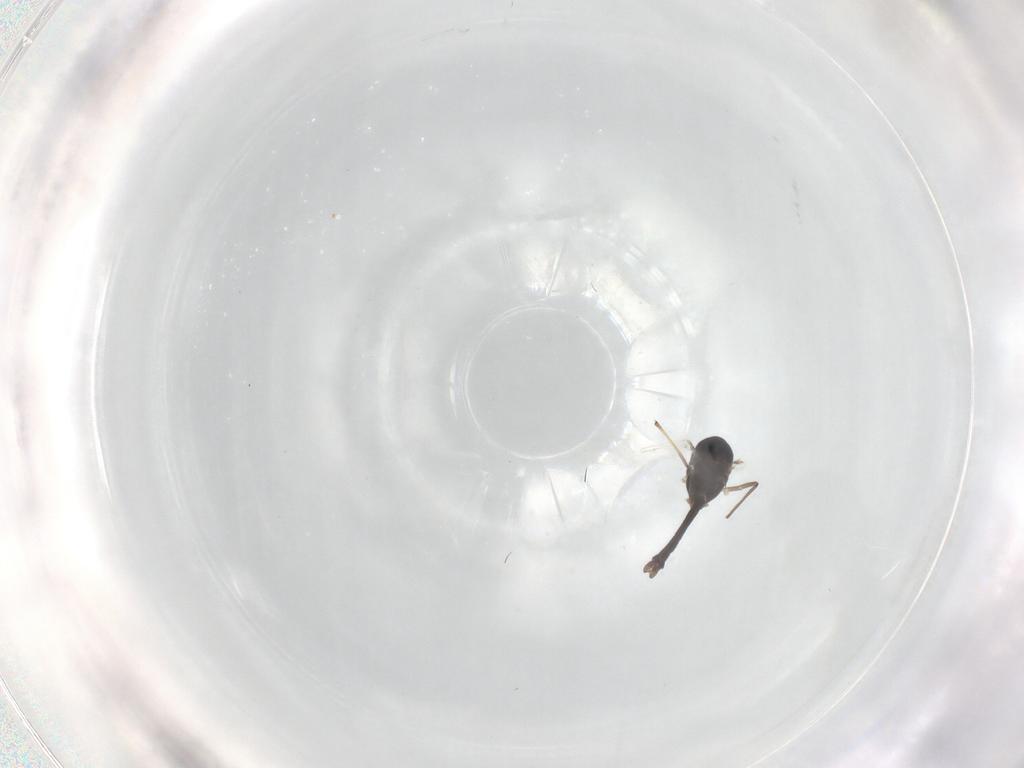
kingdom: Animalia
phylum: Arthropoda
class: Insecta
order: Diptera
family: Chironomidae
